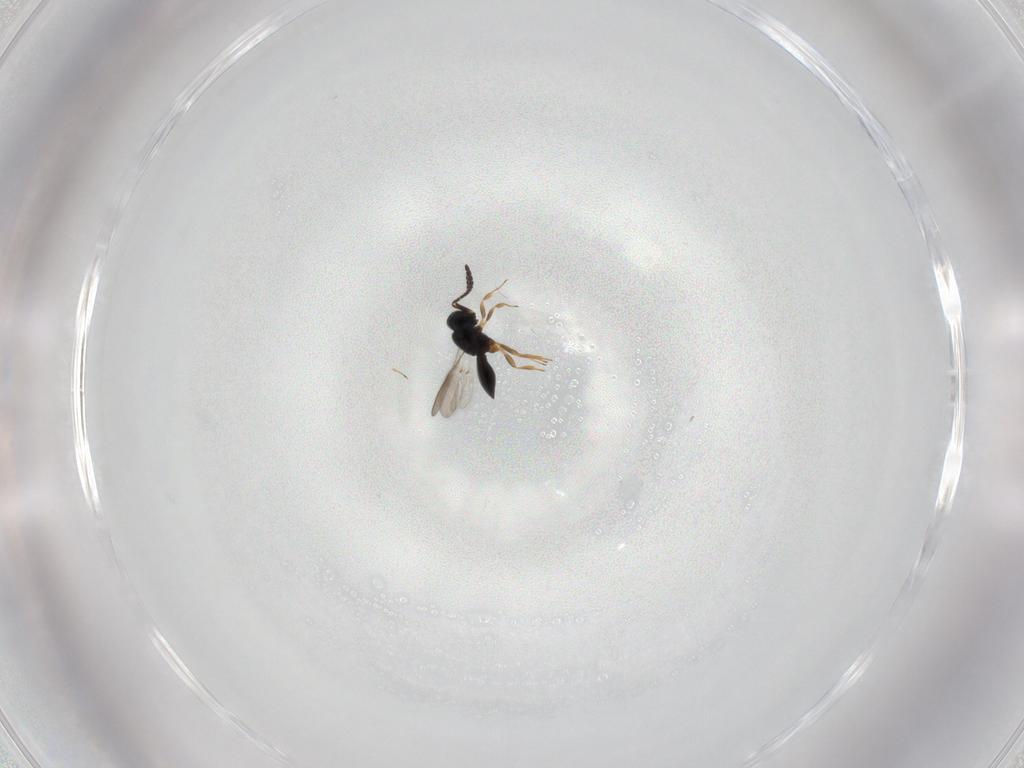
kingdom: Animalia
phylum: Arthropoda
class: Insecta
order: Hymenoptera
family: Scelionidae
